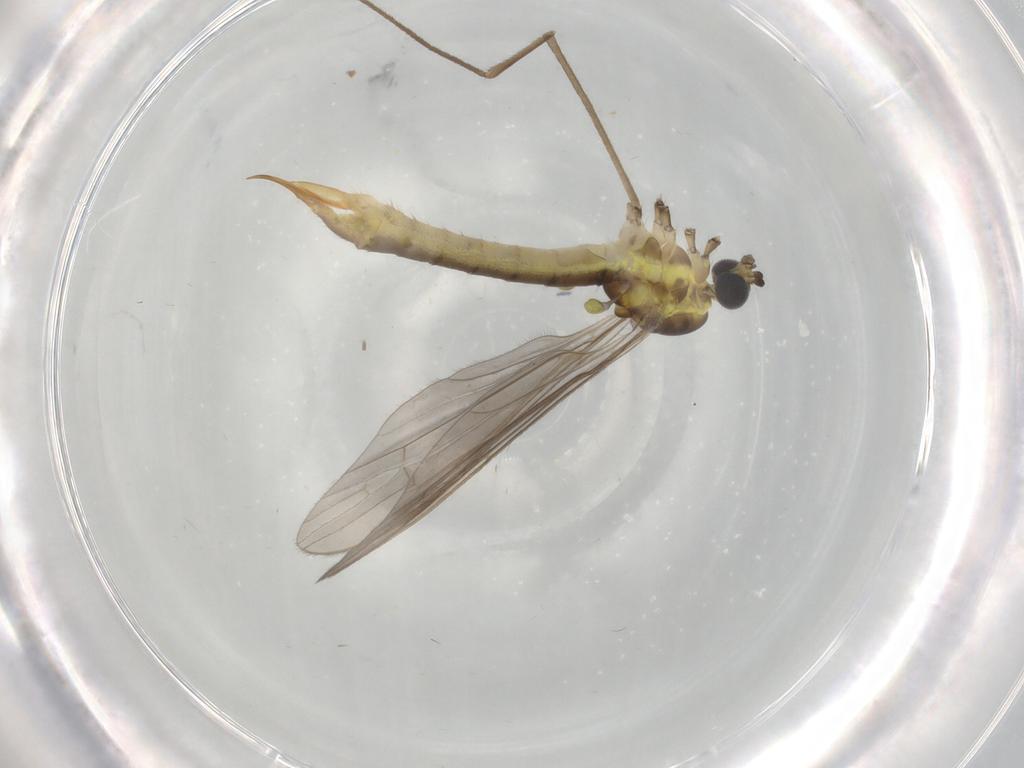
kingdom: Animalia
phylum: Arthropoda
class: Insecta
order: Diptera
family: Limoniidae
